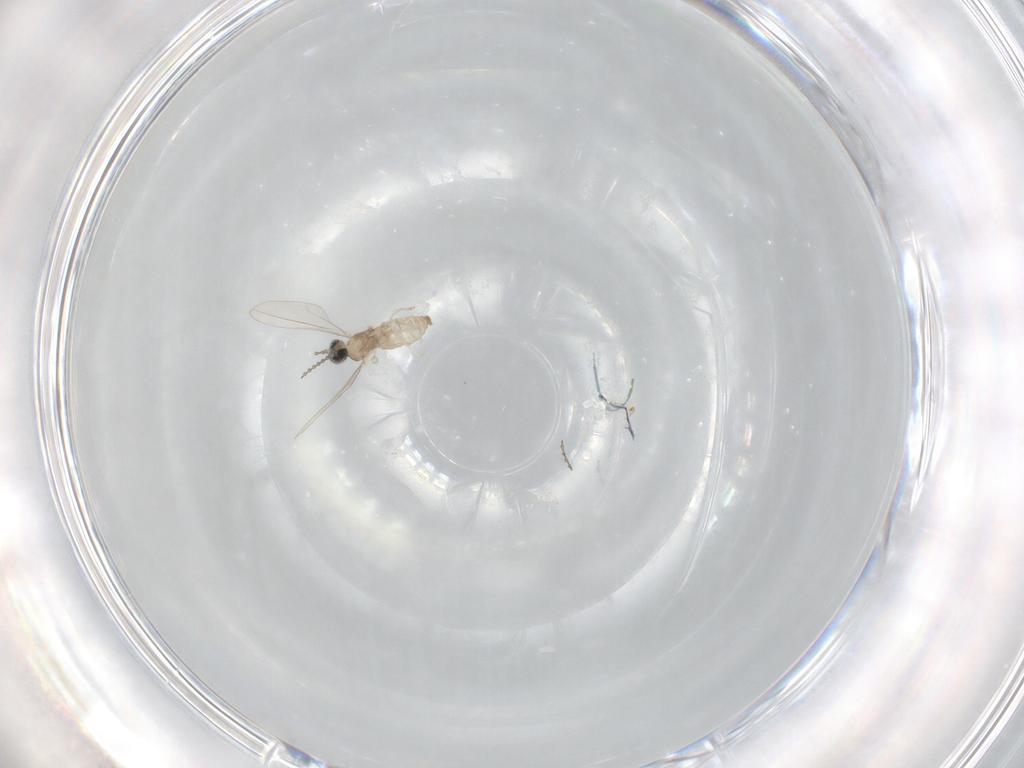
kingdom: Animalia
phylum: Arthropoda
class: Insecta
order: Diptera
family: Cecidomyiidae
